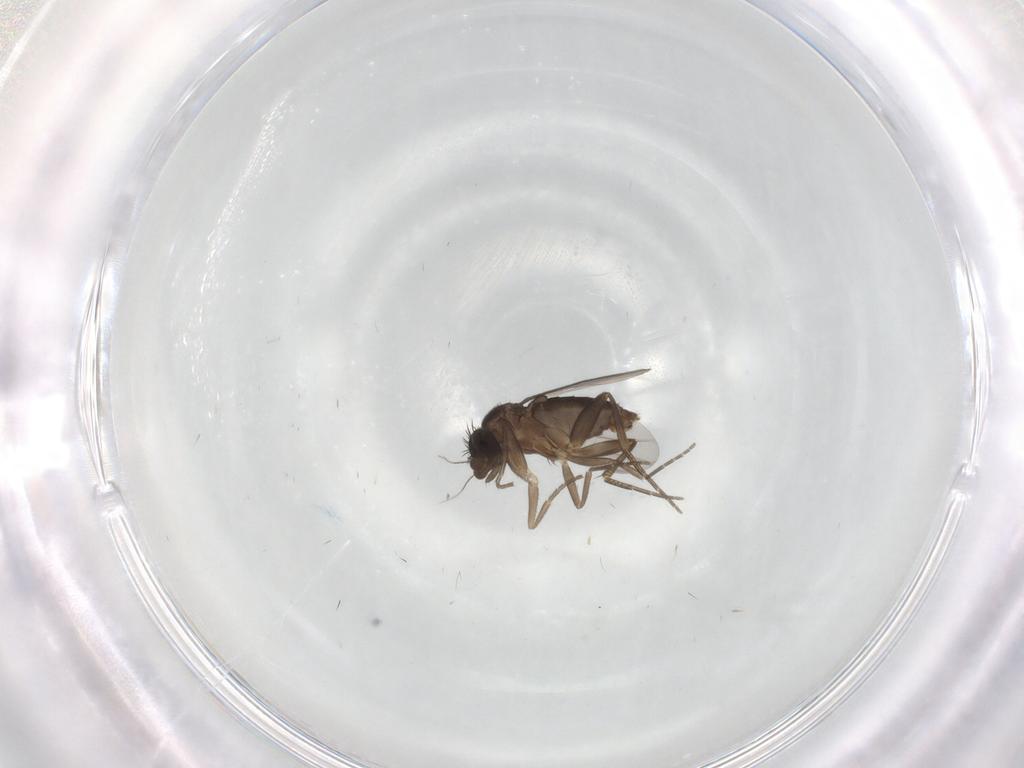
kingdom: Animalia
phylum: Arthropoda
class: Insecta
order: Diptera
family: Phoridae
